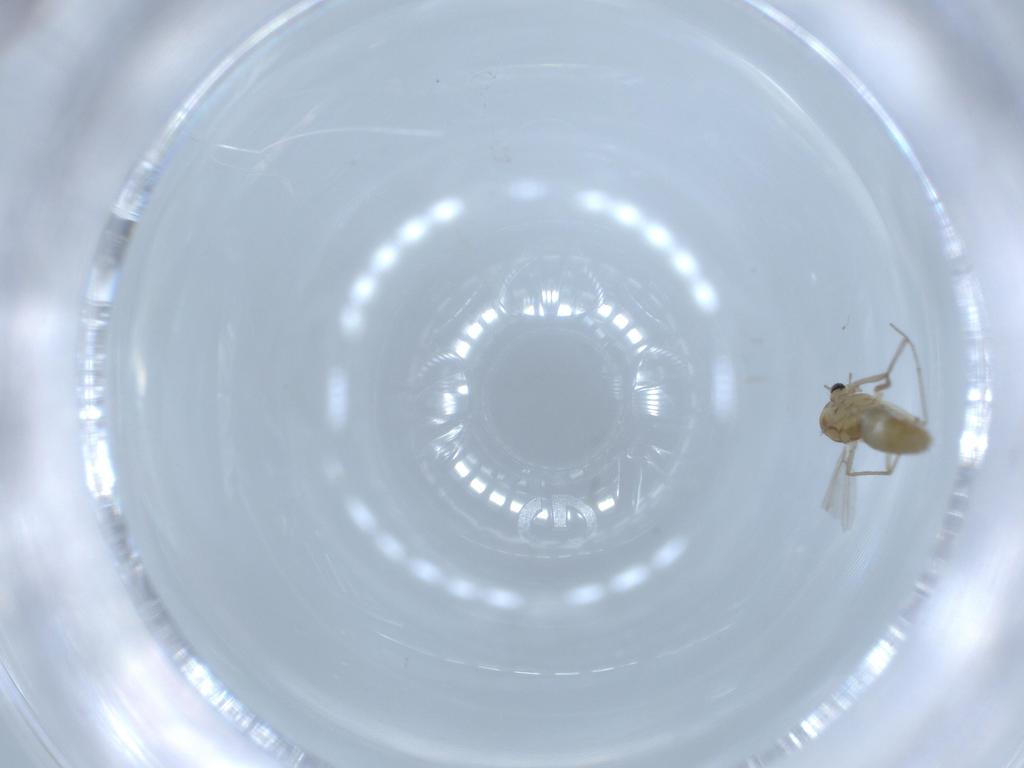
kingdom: Animalia
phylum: Arthropoda
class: Insecta
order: Diptera
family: Chironomidae
